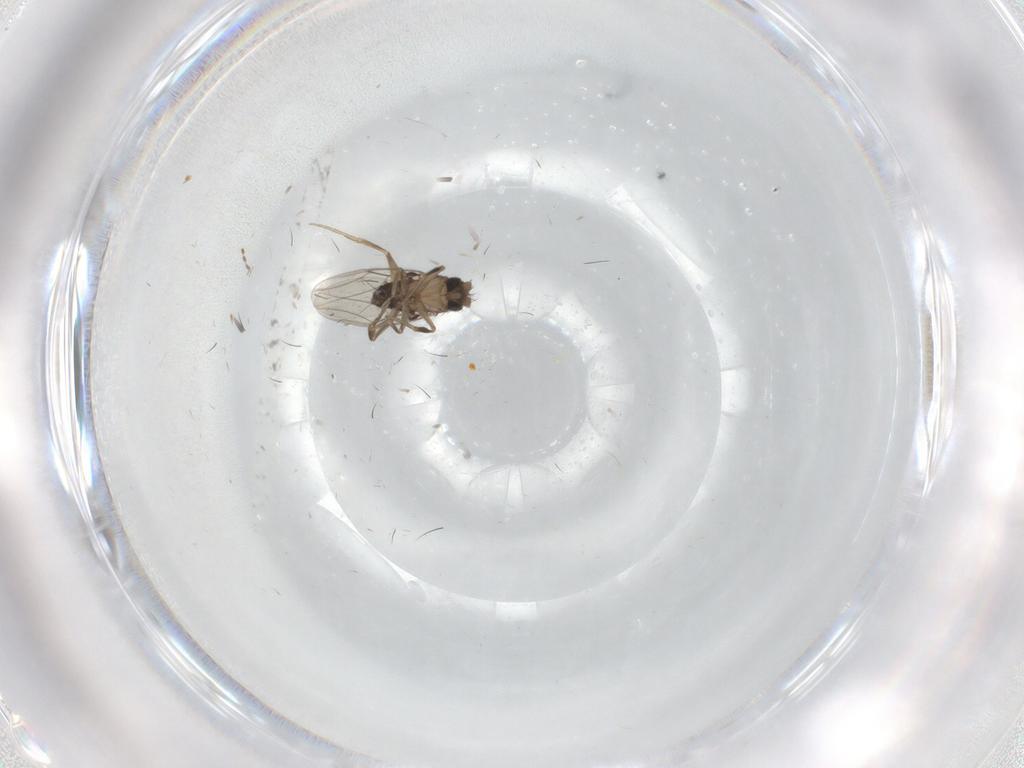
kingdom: Animalia
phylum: Arthropoda
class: Insecta
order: Diptera
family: Phoridae
